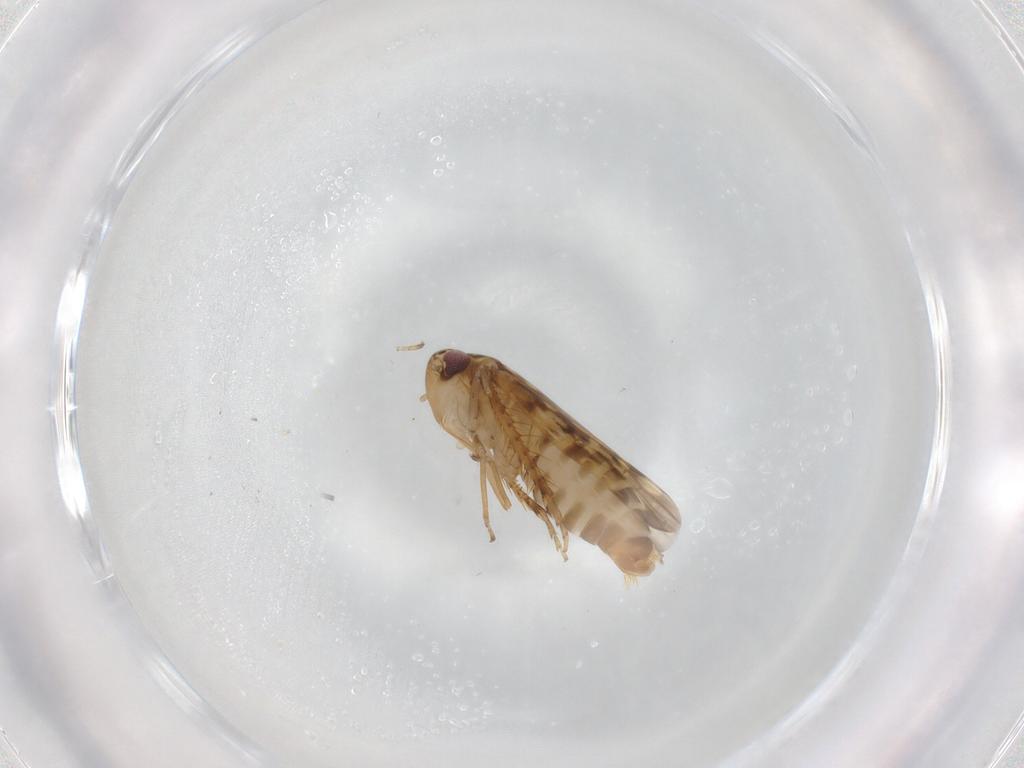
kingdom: Animalia
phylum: Arthropoda
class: Insecta
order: Hemiptera
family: Cicadellidae
